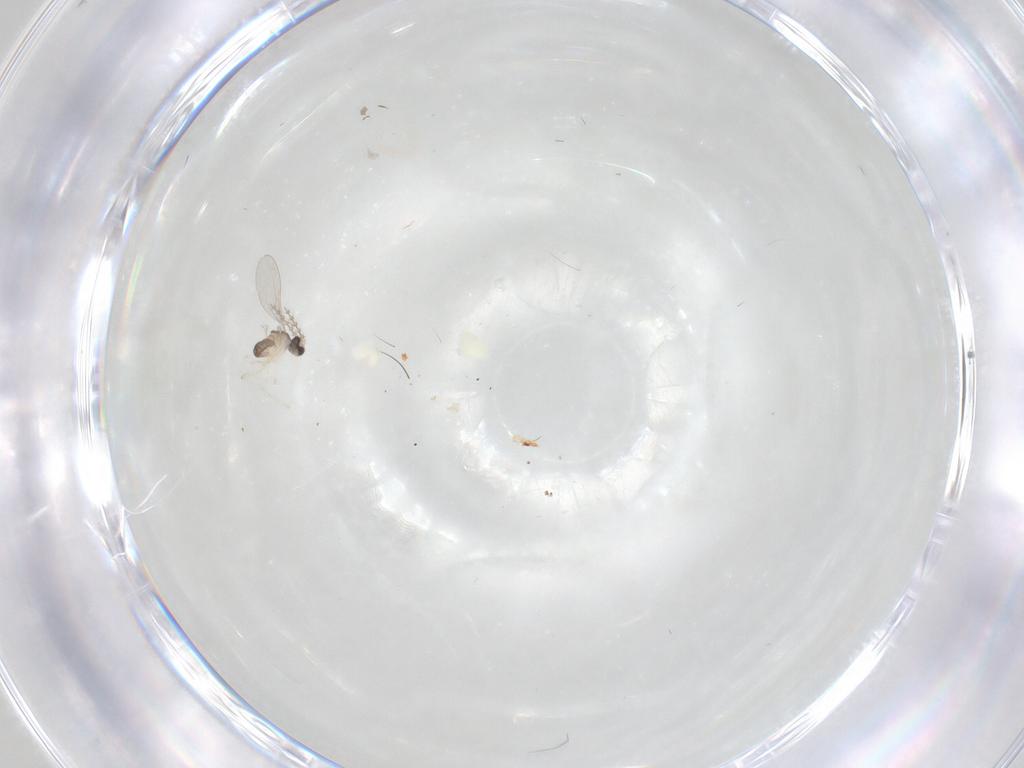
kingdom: Animalia
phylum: Arthropoda
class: Insecta
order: Diptera
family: Cecidomyiidae
